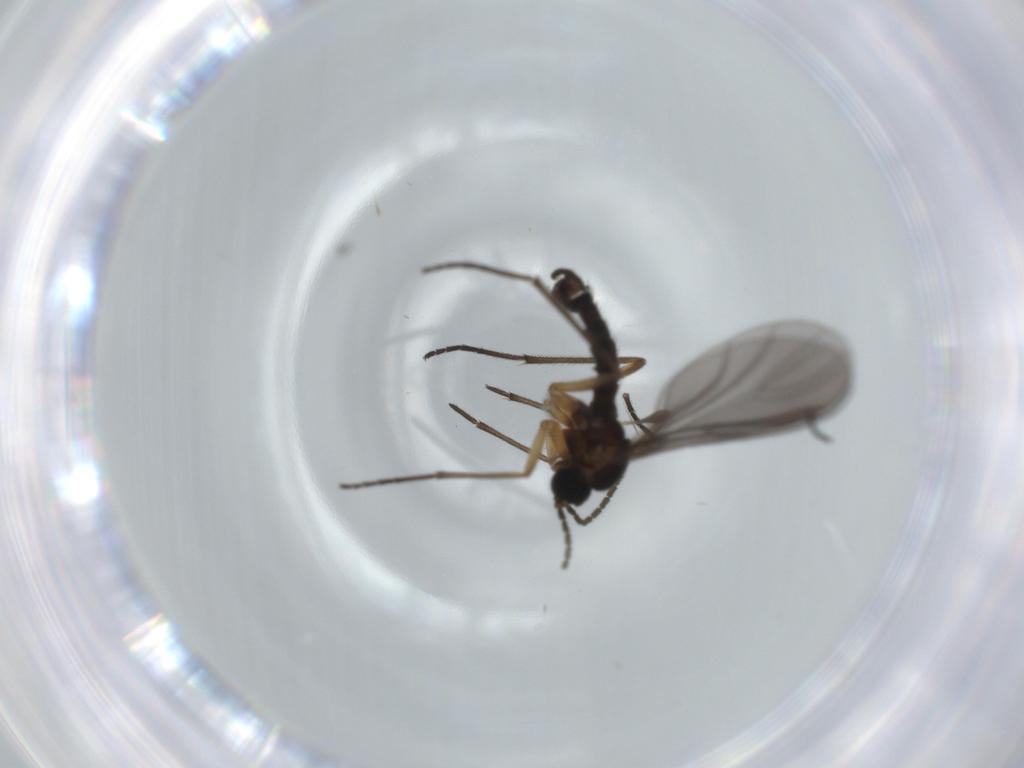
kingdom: Animalia
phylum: Arthropoda
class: Insecta
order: Diptera
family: Sciaridae
